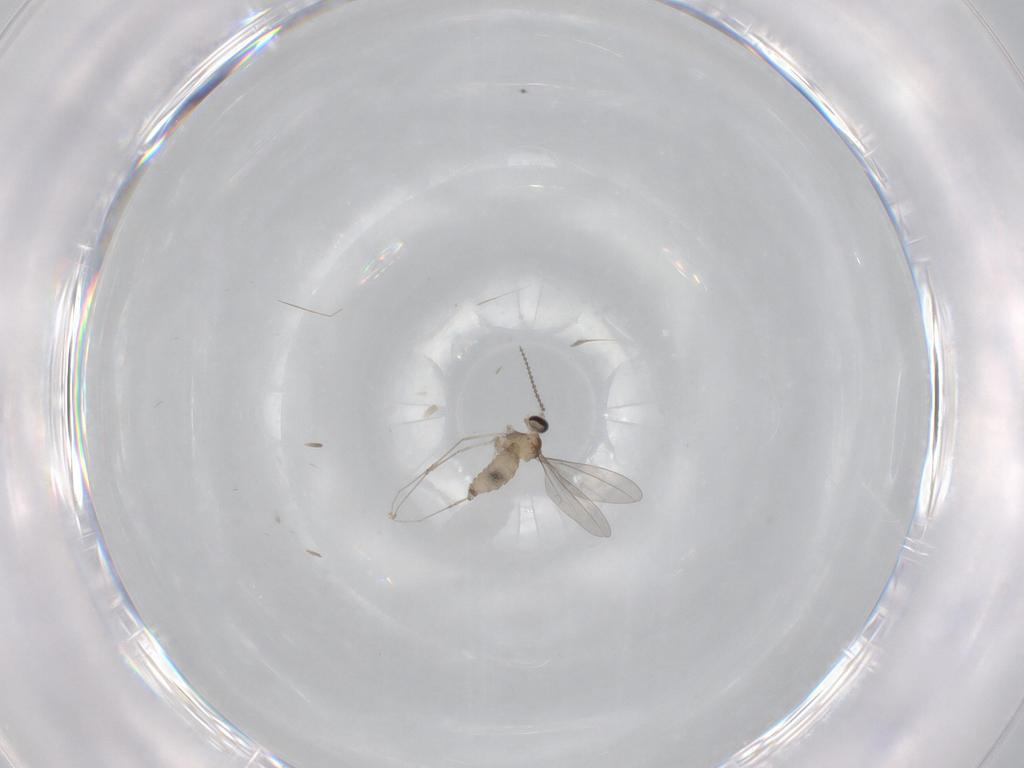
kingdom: Animalia
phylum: Arthropoda
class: Insecta
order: Diptera
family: Cecidomyiidae
